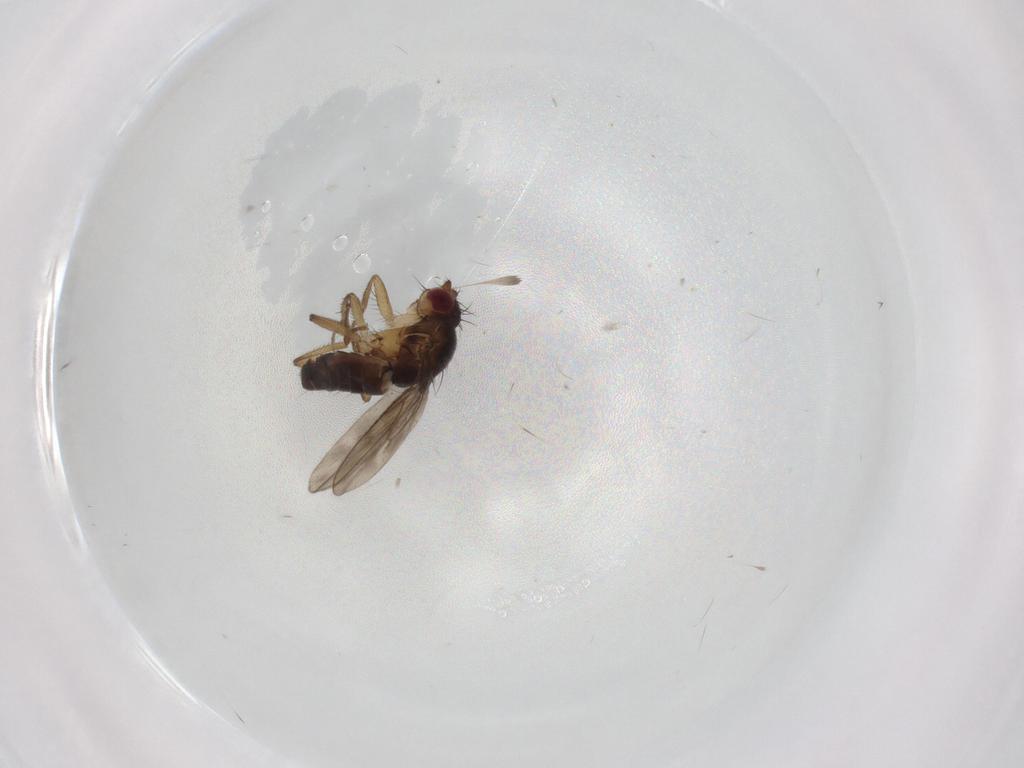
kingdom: Animalia
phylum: Arthropoda
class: Insecta
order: Diptera
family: Sphaeroceridae
